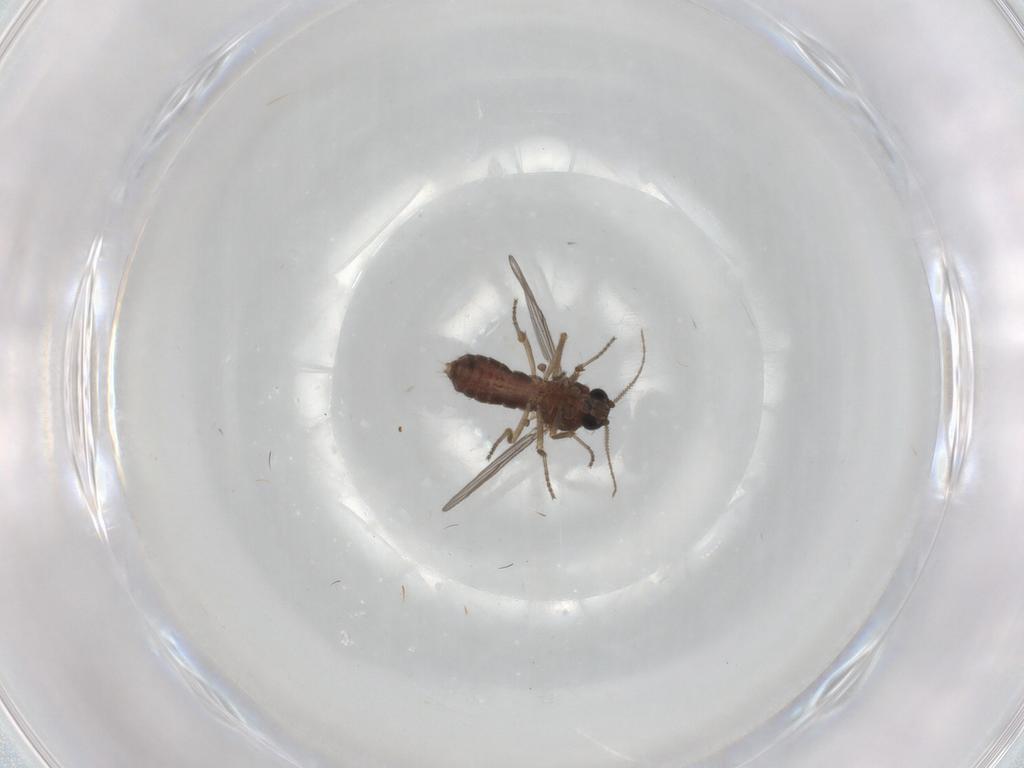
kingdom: Animalia
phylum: Arthropoda
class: Insecta
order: Diptera
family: Ceratopogonidae
